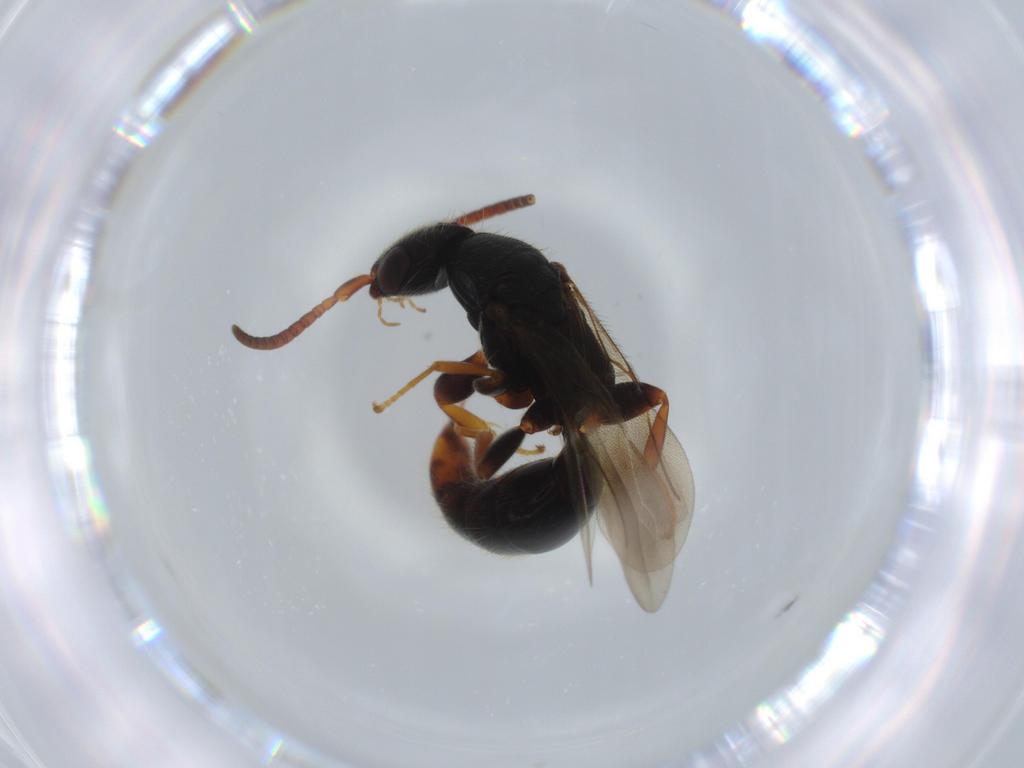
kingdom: Animalia
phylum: Arthropoda
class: Insecta
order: Hymenoptera
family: Bethylidae
